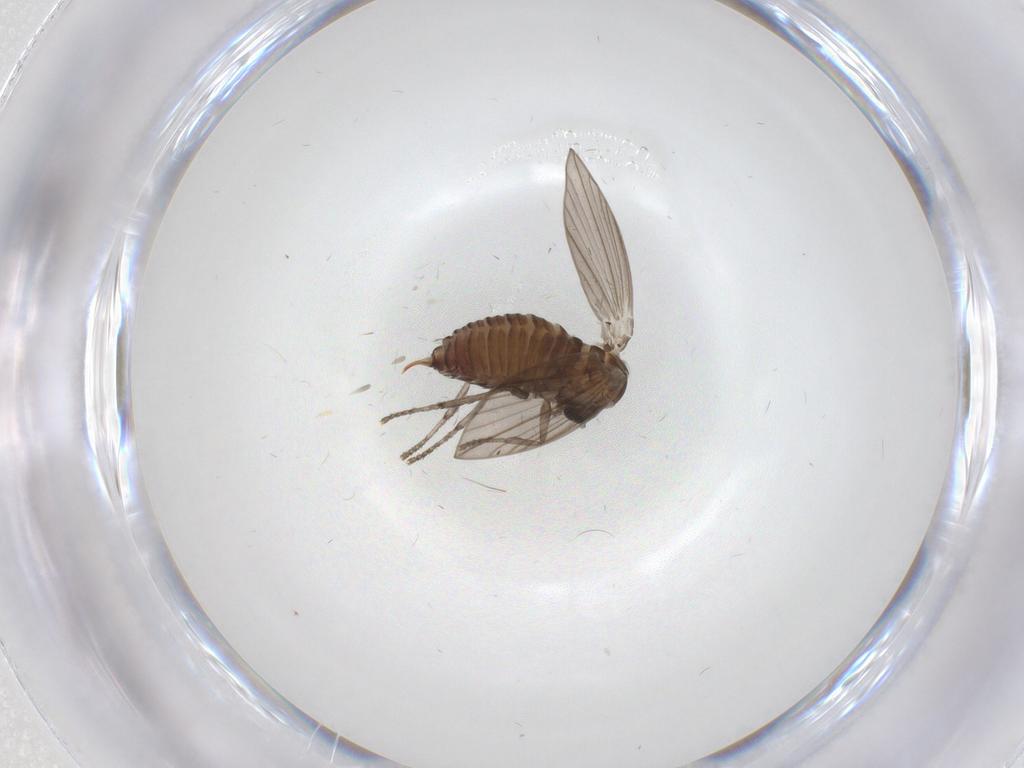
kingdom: Animalia
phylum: Arthropoda
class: Insecta
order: Diptera
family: Psychodidae
